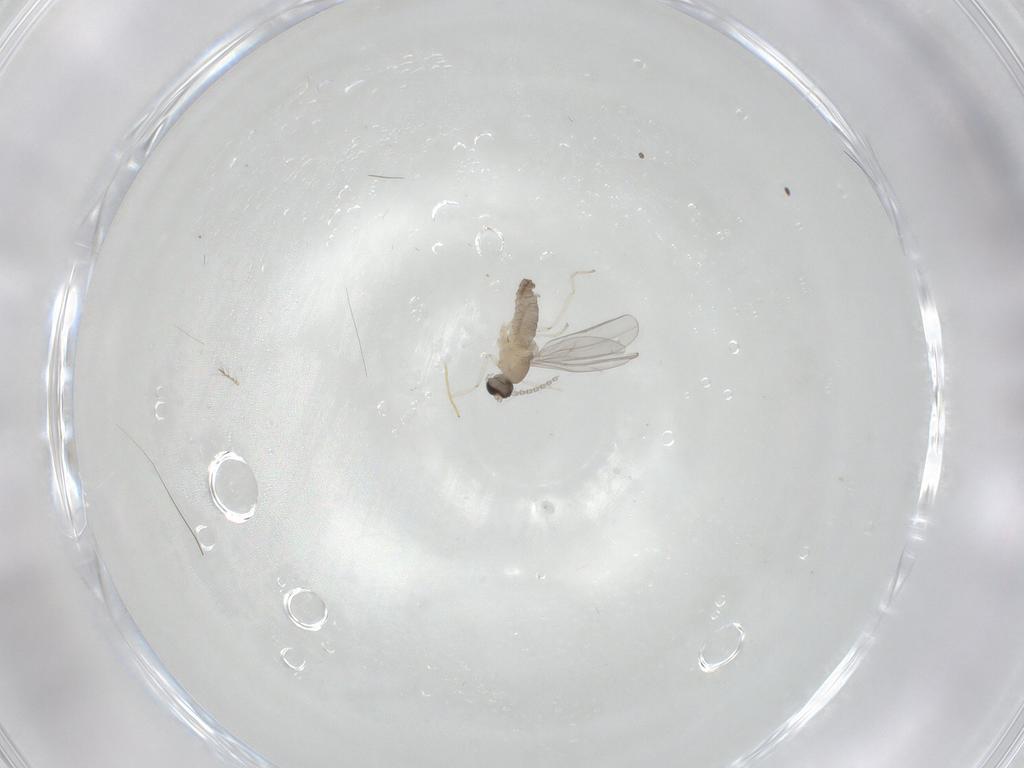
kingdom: Animalia
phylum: Arthropoda
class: Insecta
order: Diptera
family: Cecidomyiidae
